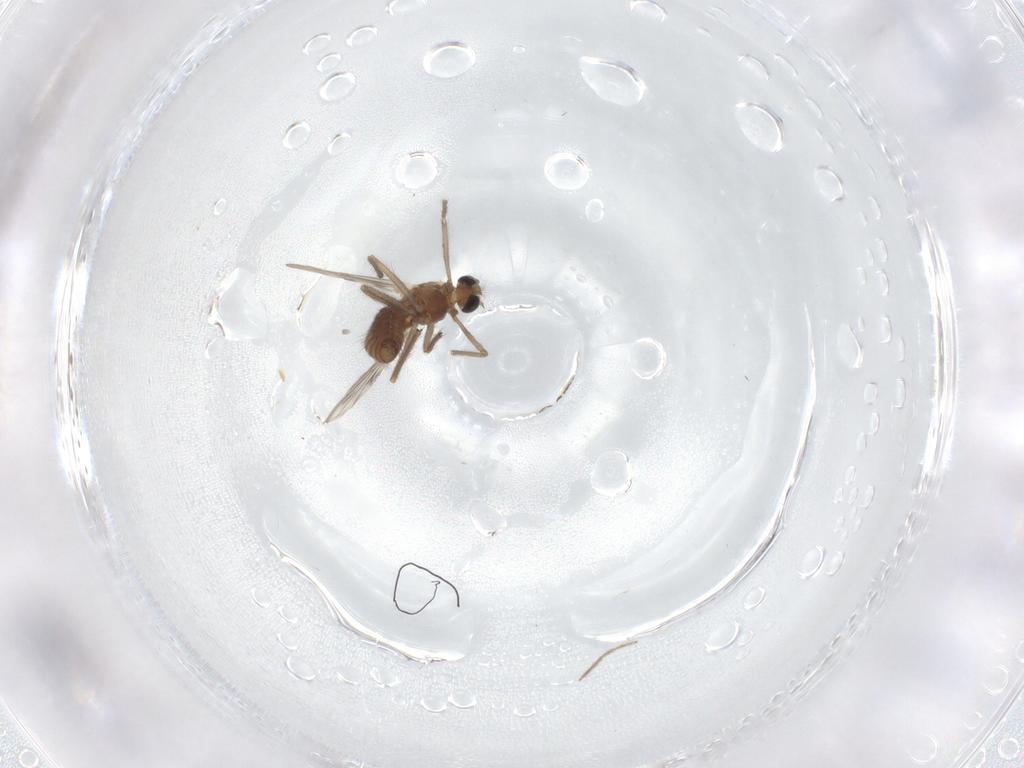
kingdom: Animalia
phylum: Arthropoda
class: Insecta
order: Diptera
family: Chironomidae
